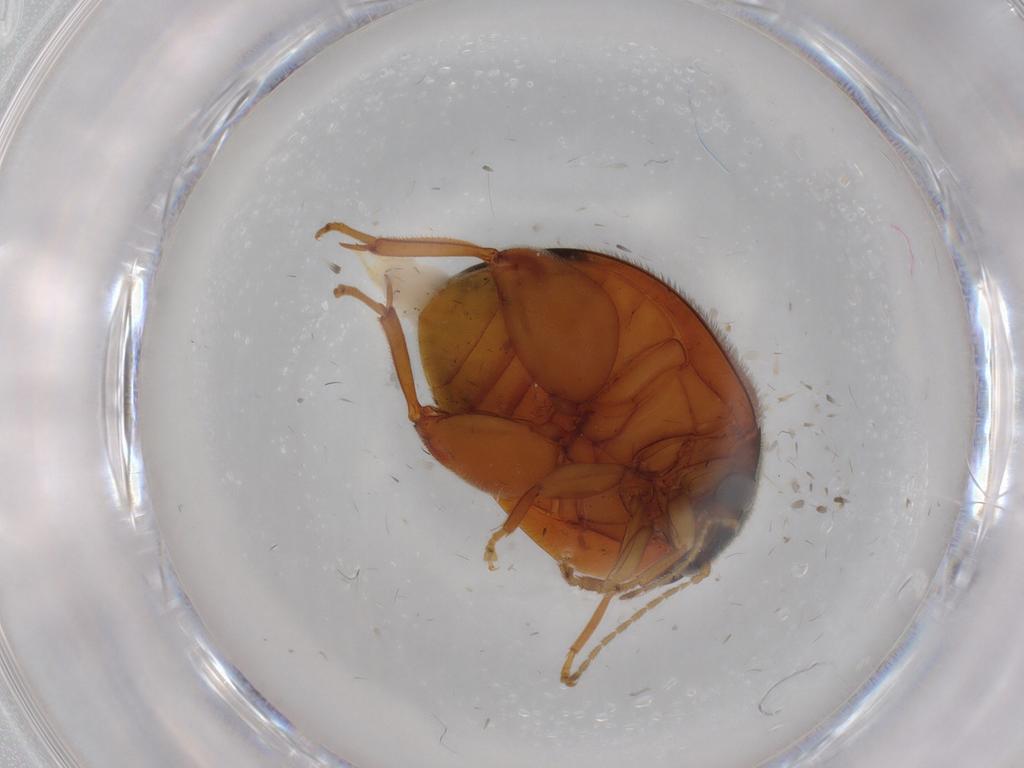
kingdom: Animalia
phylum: Arthropoda
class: Insecta
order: Coleoptera
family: Scirtidae
